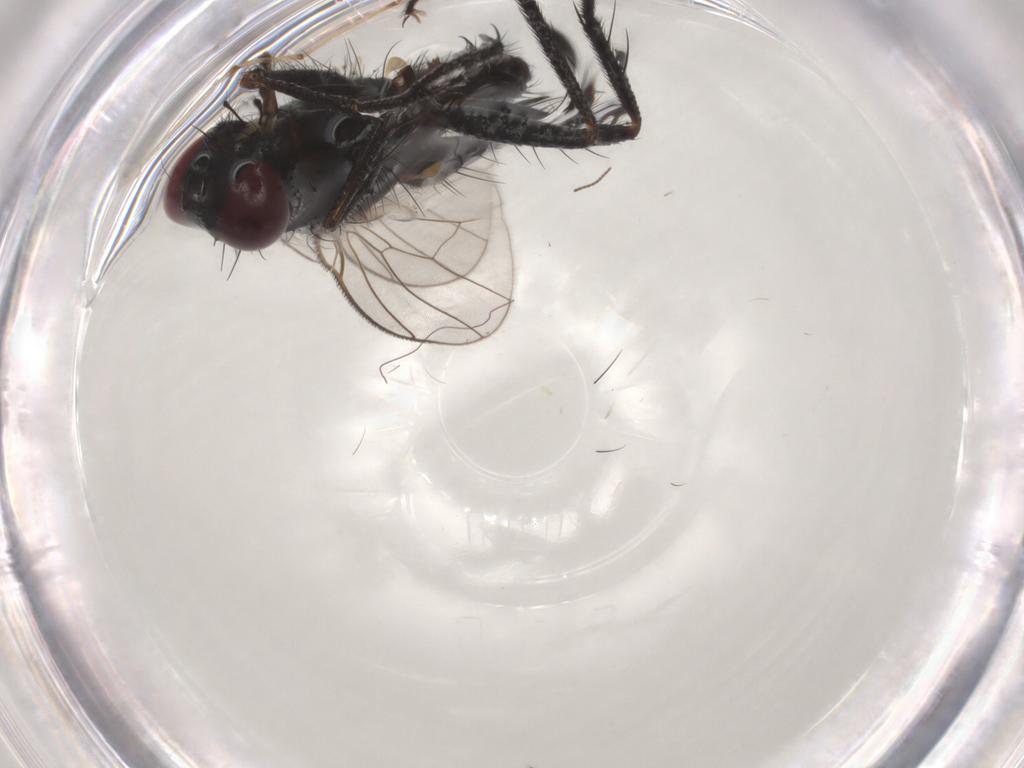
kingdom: Animalia
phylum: Arthropoda
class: Insecta
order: Diptera
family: Muscidae
